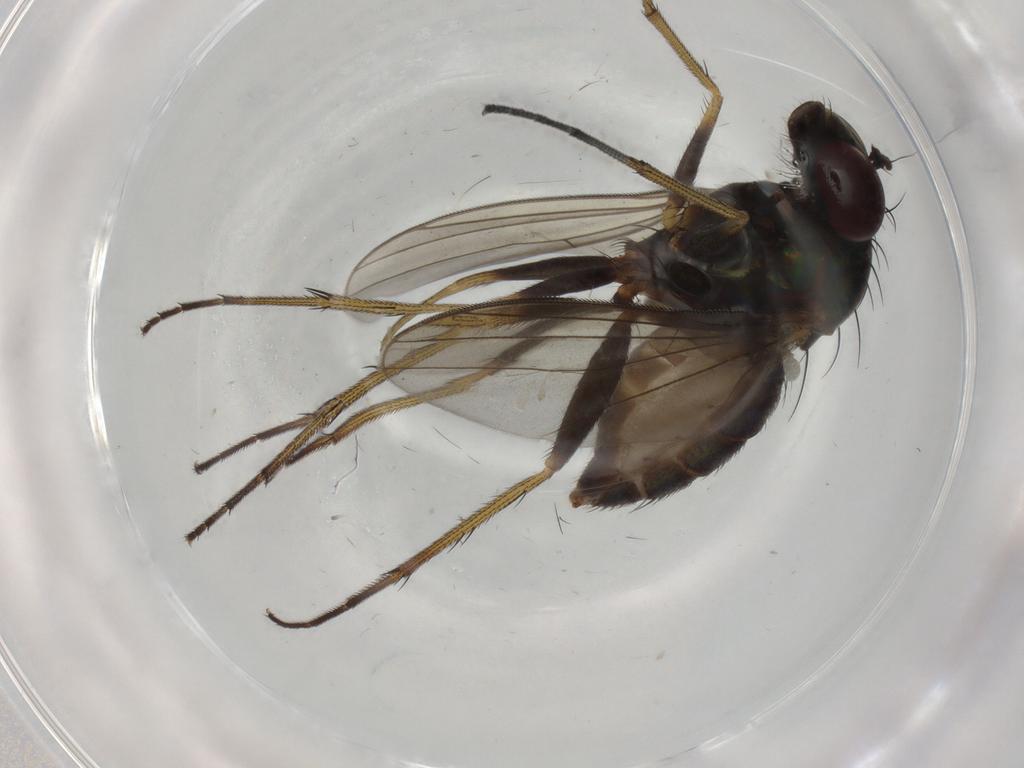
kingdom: Animalia
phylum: Arthropoda
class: Insecta
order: Diptera
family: Dolichopodidae
